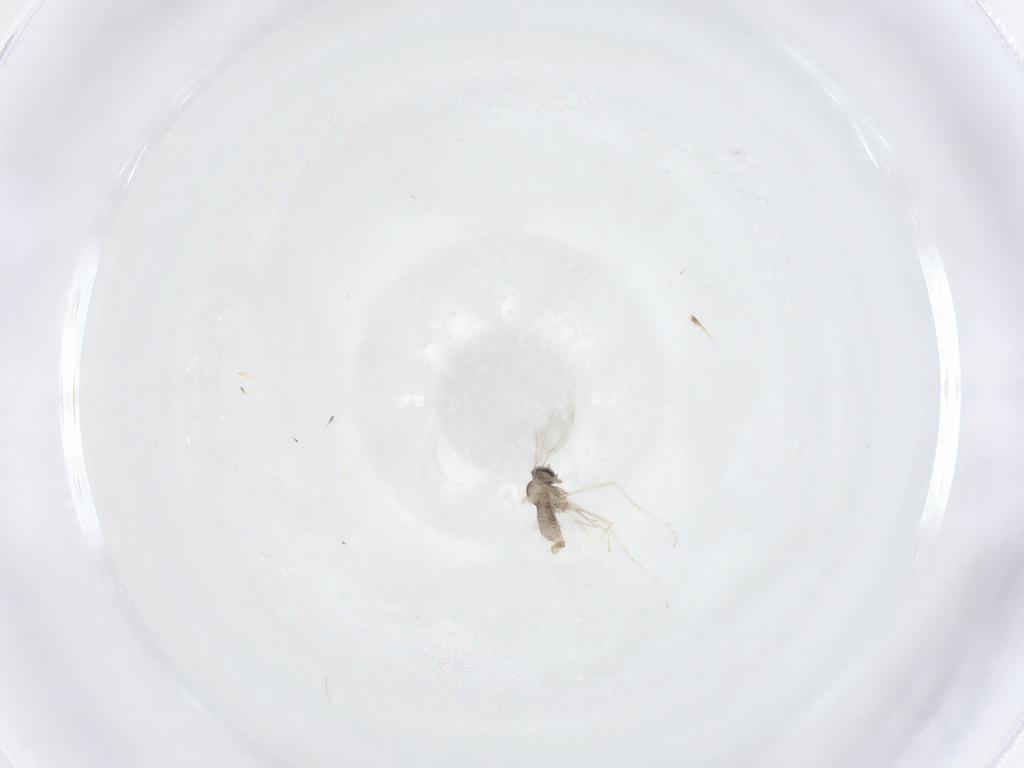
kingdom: Animalia
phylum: Arthropoda
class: Insecta
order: Diptera
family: Cecidomyiidae
